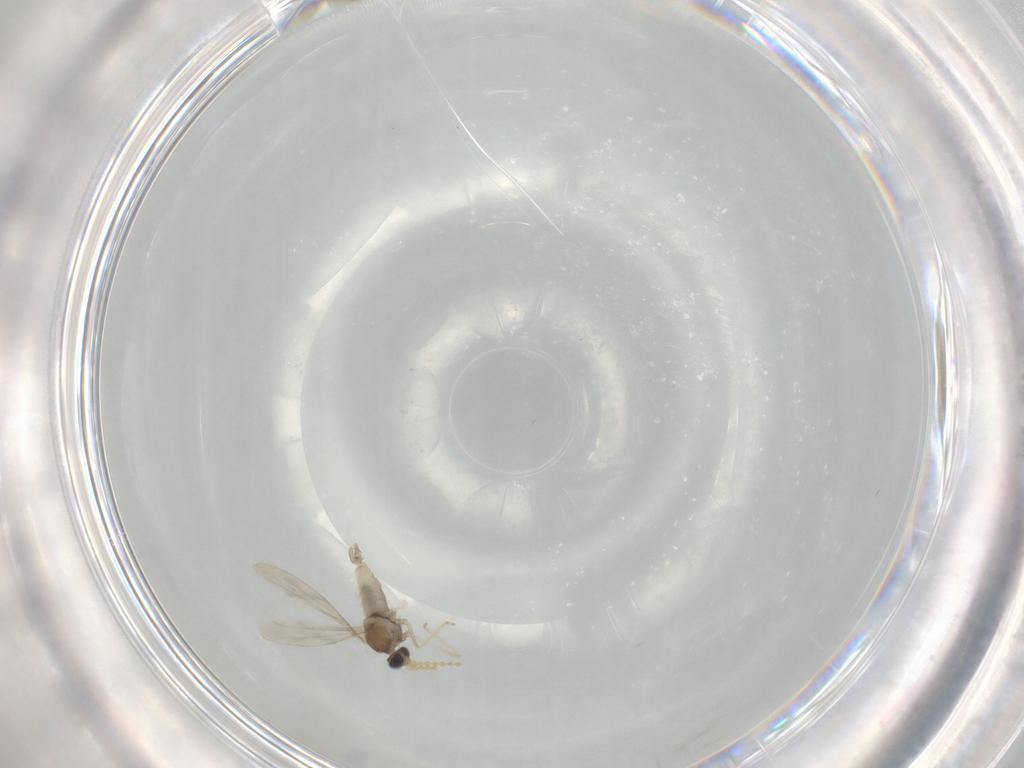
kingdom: Animalia
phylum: Arthropoda
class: Insecta
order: Diptera
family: Cecidomyiidae
